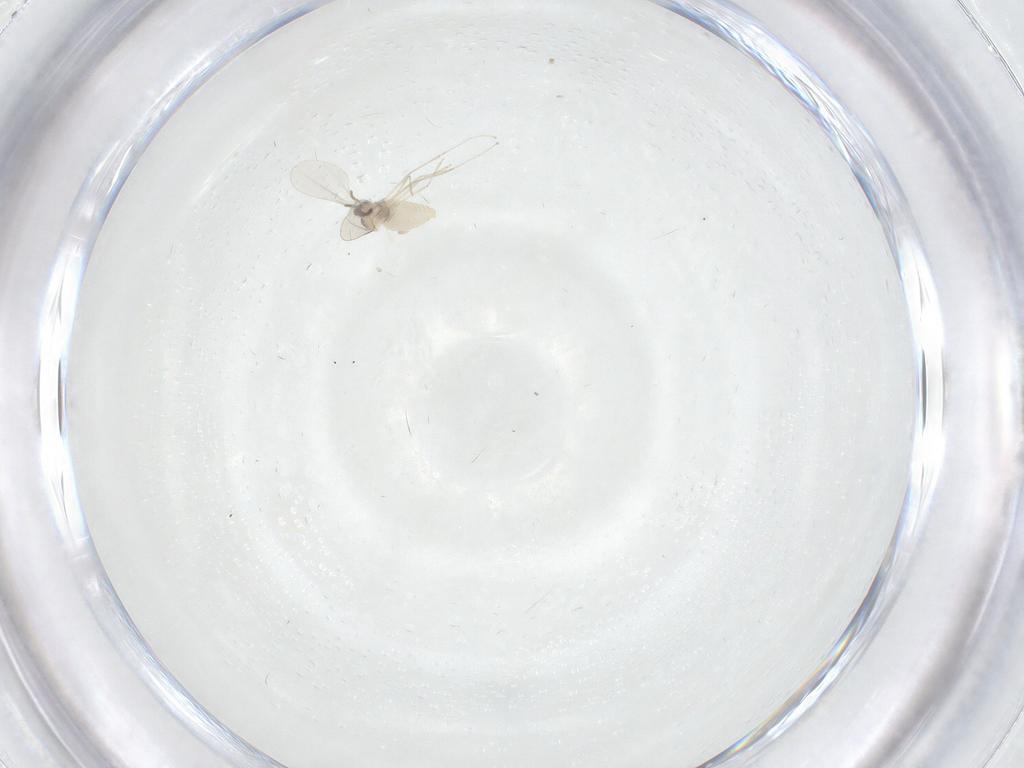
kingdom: Animalia
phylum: Arthropoda
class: Insecta
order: Diptera
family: Cecidomyiidae
